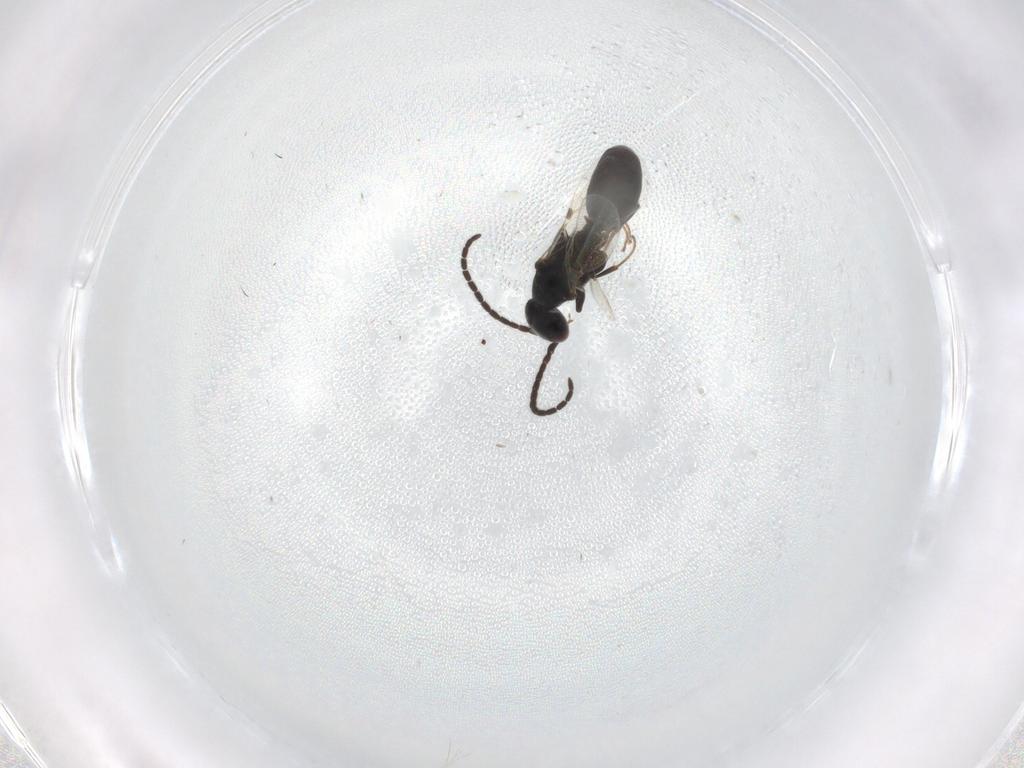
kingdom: Animalia
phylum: Arthropoda
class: Insecta
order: Hymenoptera
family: Bethylidae
